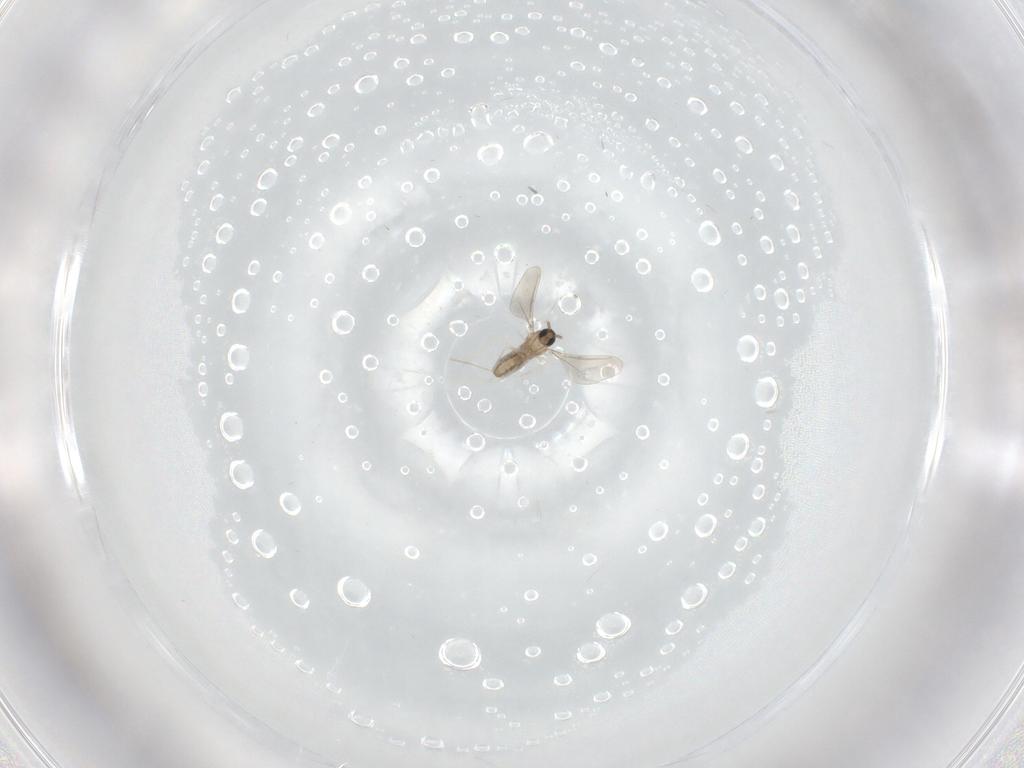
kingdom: Animalia
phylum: Arthropoda
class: Insecta
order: Diptera
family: Cecidomyiidae
